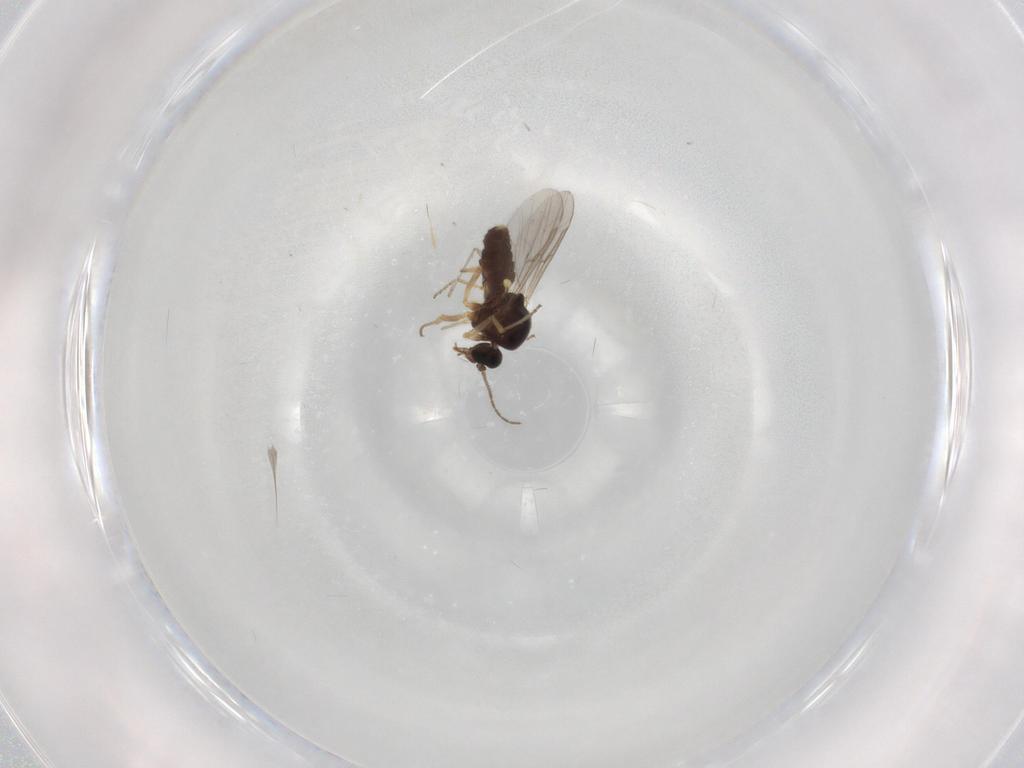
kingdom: Animalia
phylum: Arthropoda
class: Insecta
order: Diptera
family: Ceratopogonidae
